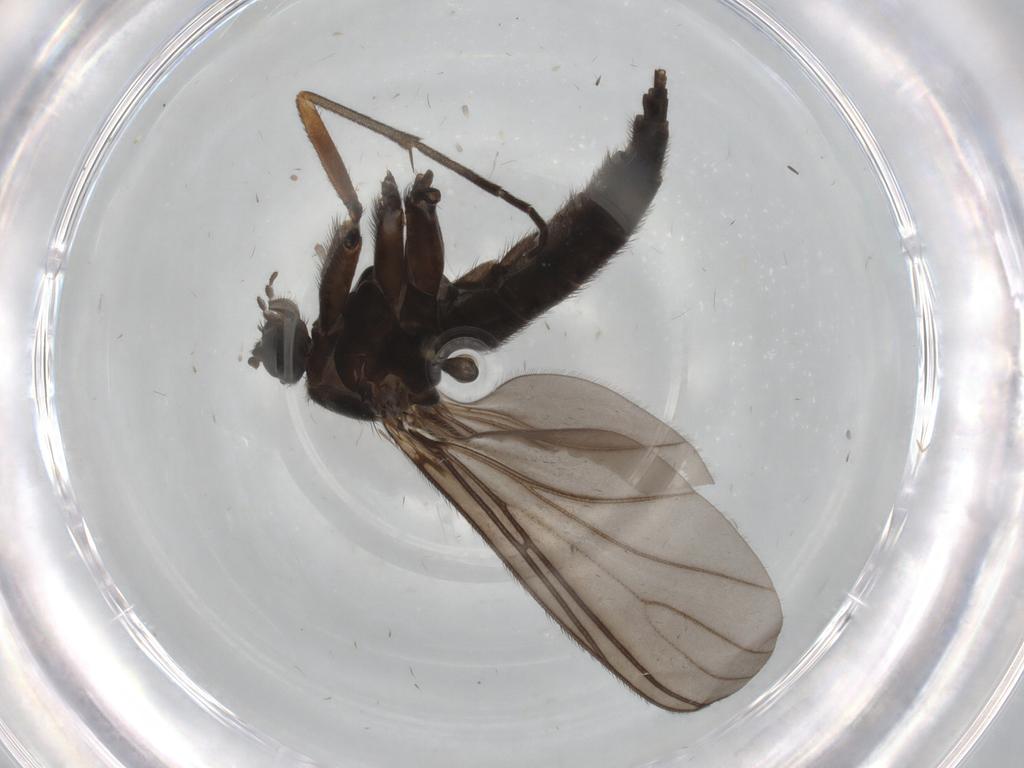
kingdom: Animalia
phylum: Arthropoda
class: Insecta
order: Diptera
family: Sciaridae
